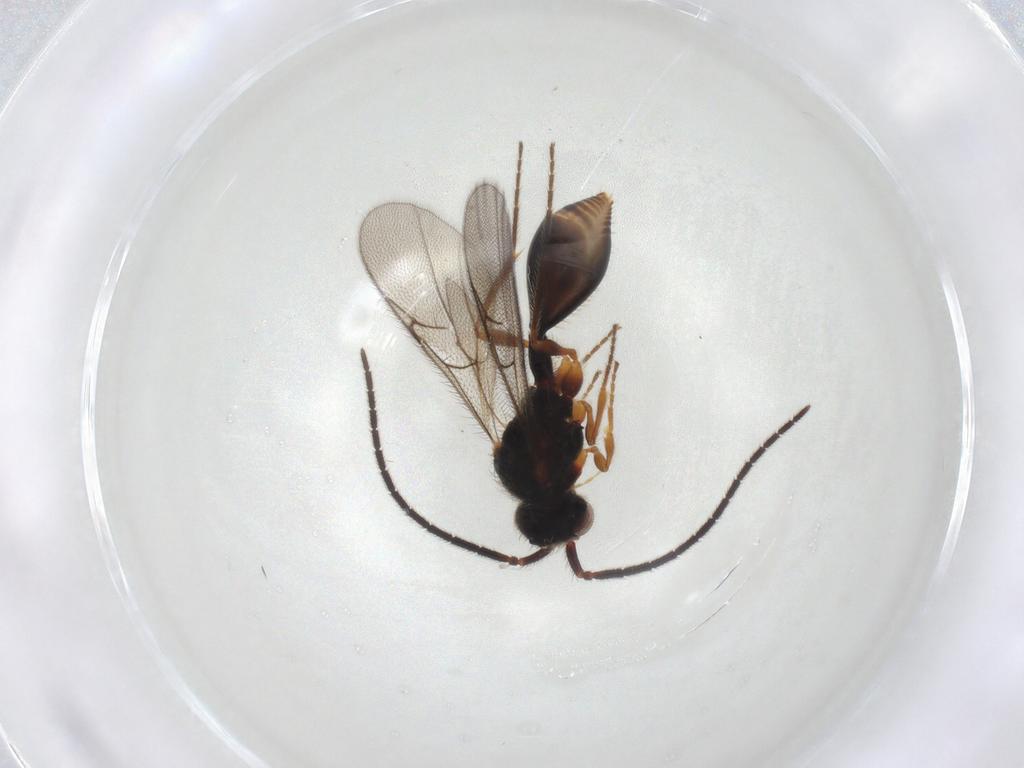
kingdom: Animalia
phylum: Arthropoda
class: Insecta
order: Hymenoptera
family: Diapriidae
